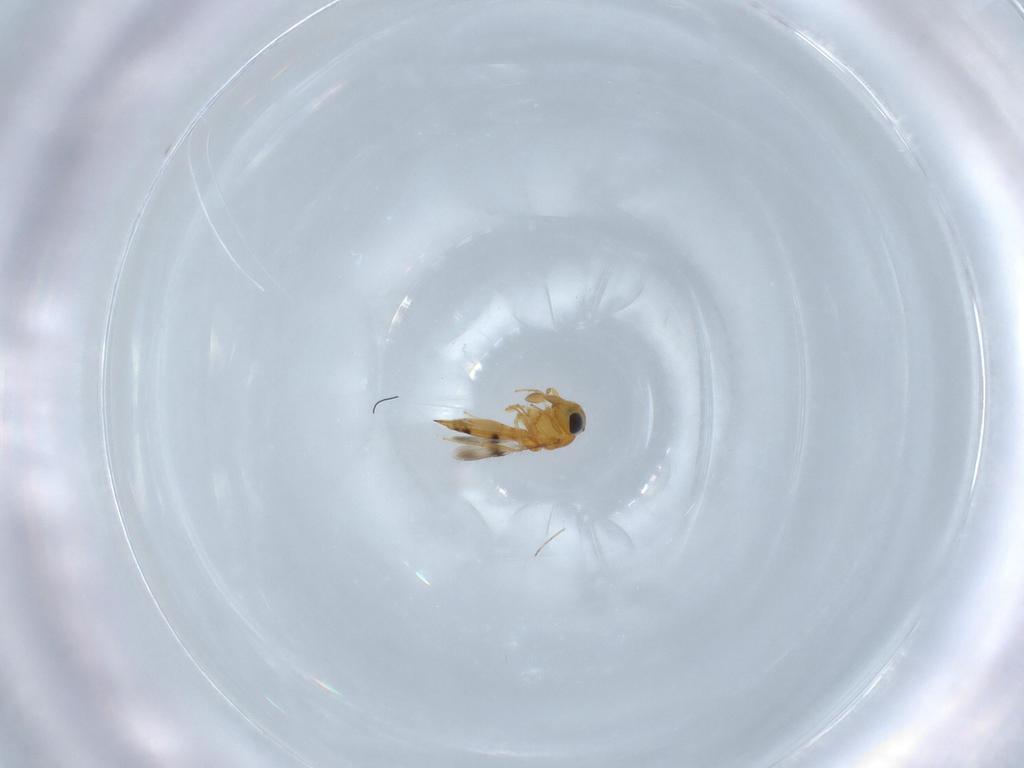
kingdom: Animalia
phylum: Arthropoda
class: Insecta
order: Hymenoptera
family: Scelionidae
